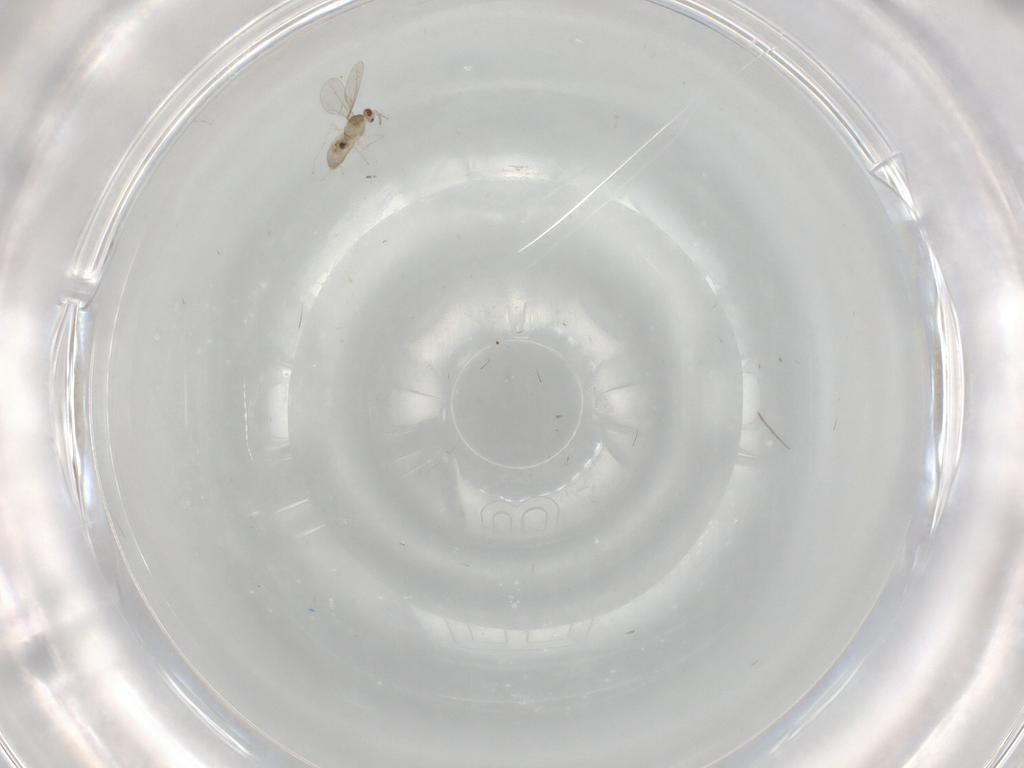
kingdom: Animalia
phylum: Arthropoda
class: Insecta
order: Diptera
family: Cecidomyiidae
